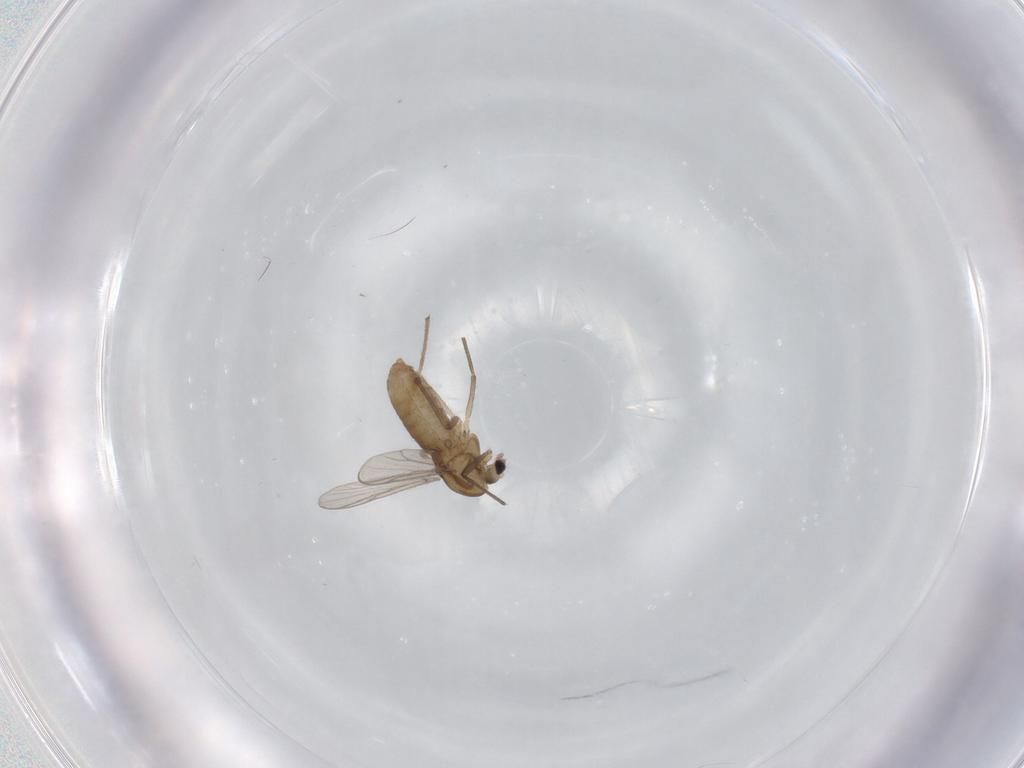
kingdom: Animalia
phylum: Arthropoda
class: Insecta
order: Diptera
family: Chironomidae
